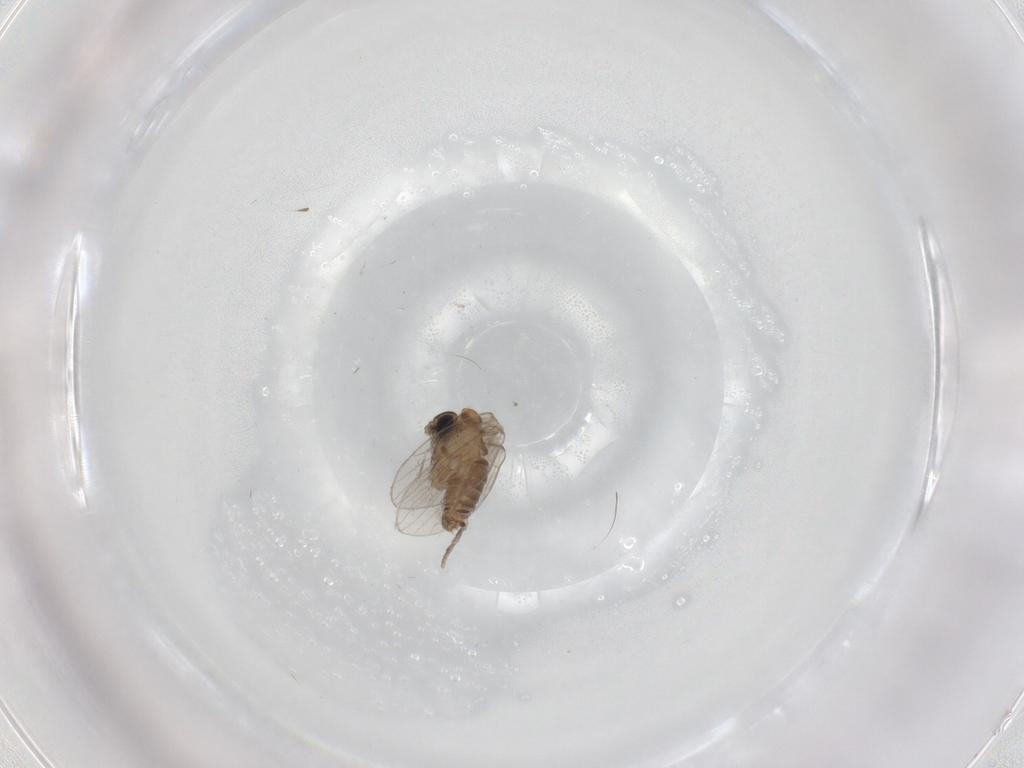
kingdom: Animalia
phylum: Arthropoda
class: Insecta
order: Diptera
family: Cecidomyiidae
